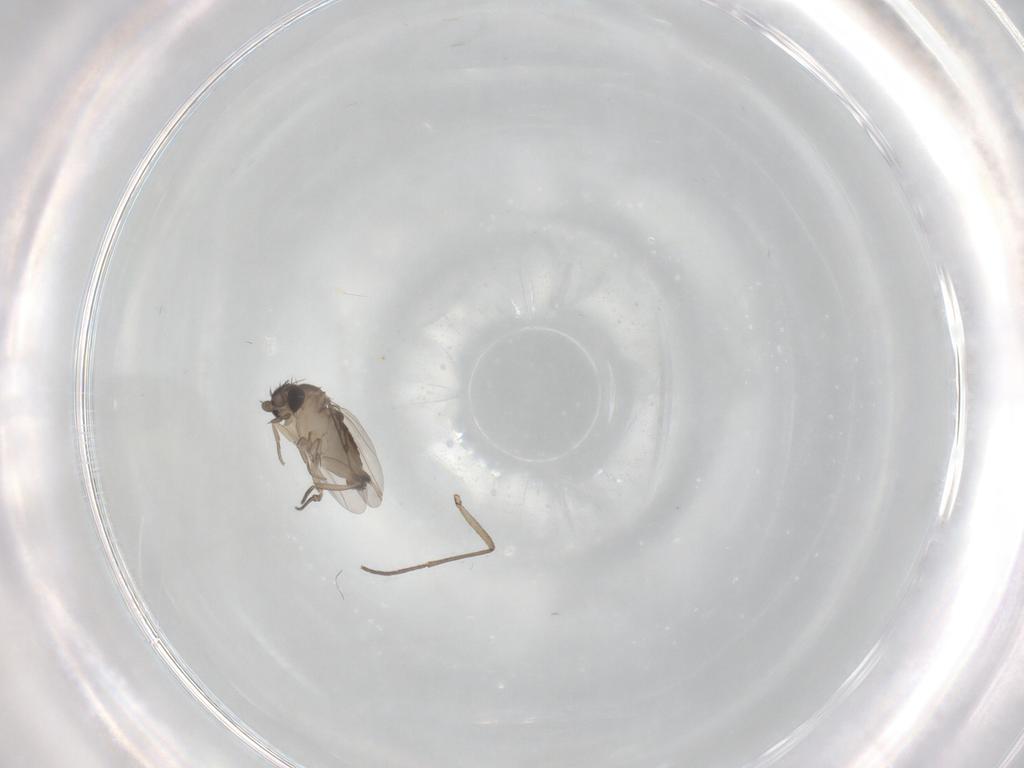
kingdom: Animalia
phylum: Arthropoda
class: Insecta
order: Diptera
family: Phoridae
